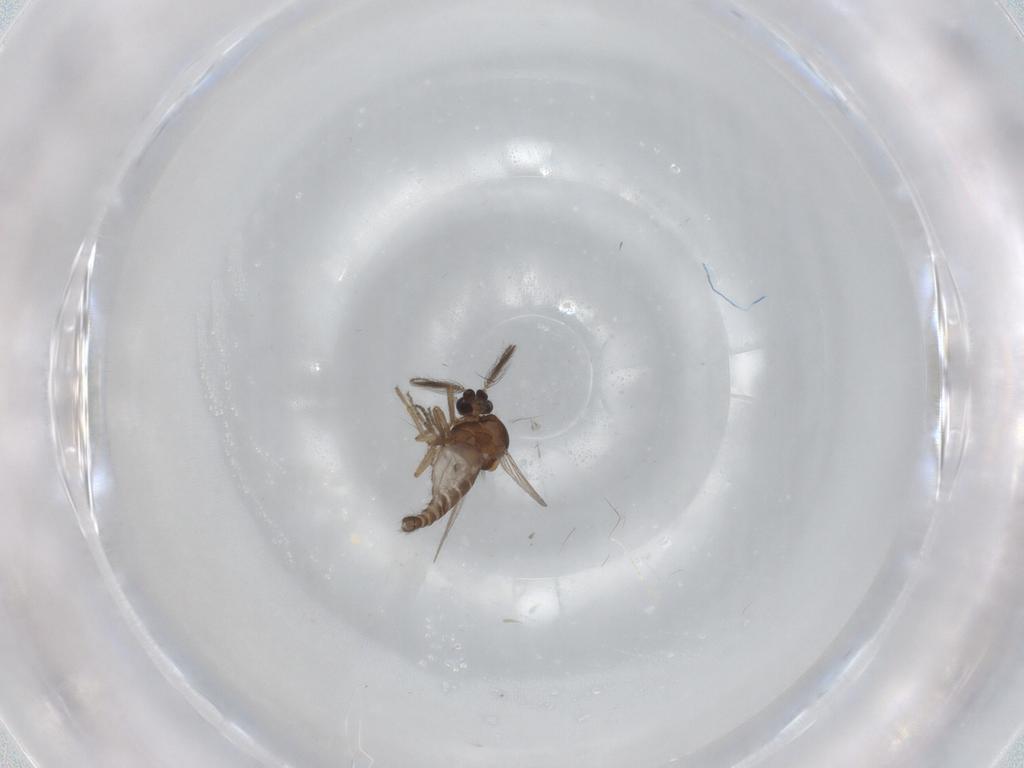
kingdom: Animalia
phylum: Arthropoda
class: Insecta
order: Diptera
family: Ceratopogonidae
